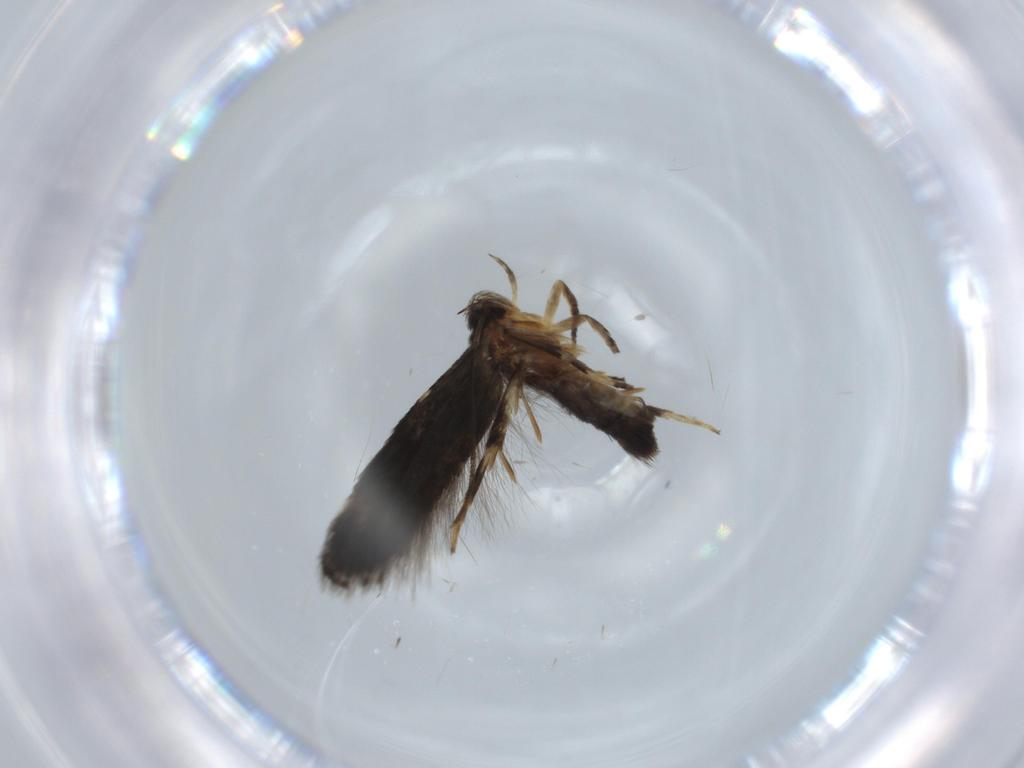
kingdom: Animalia
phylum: Arthropoda
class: Insecta
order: Lepidoptera
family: Cosmopterigidae
